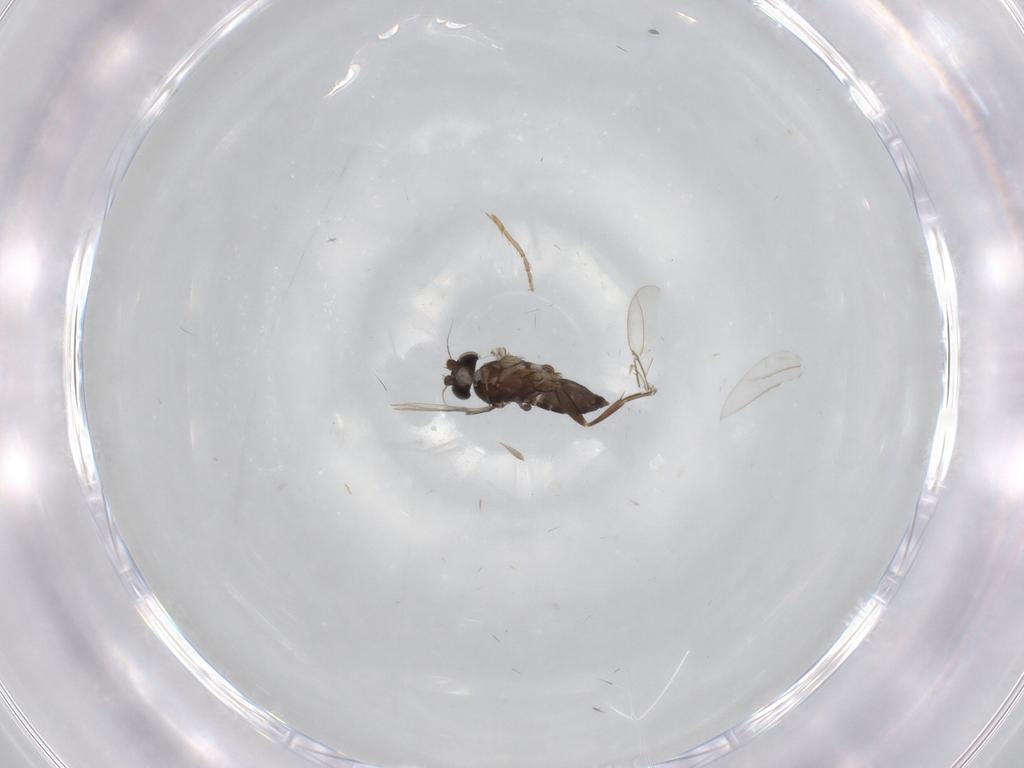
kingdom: Animalia
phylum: Arthropoda
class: Insecta
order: Diptera
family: Phoridae
